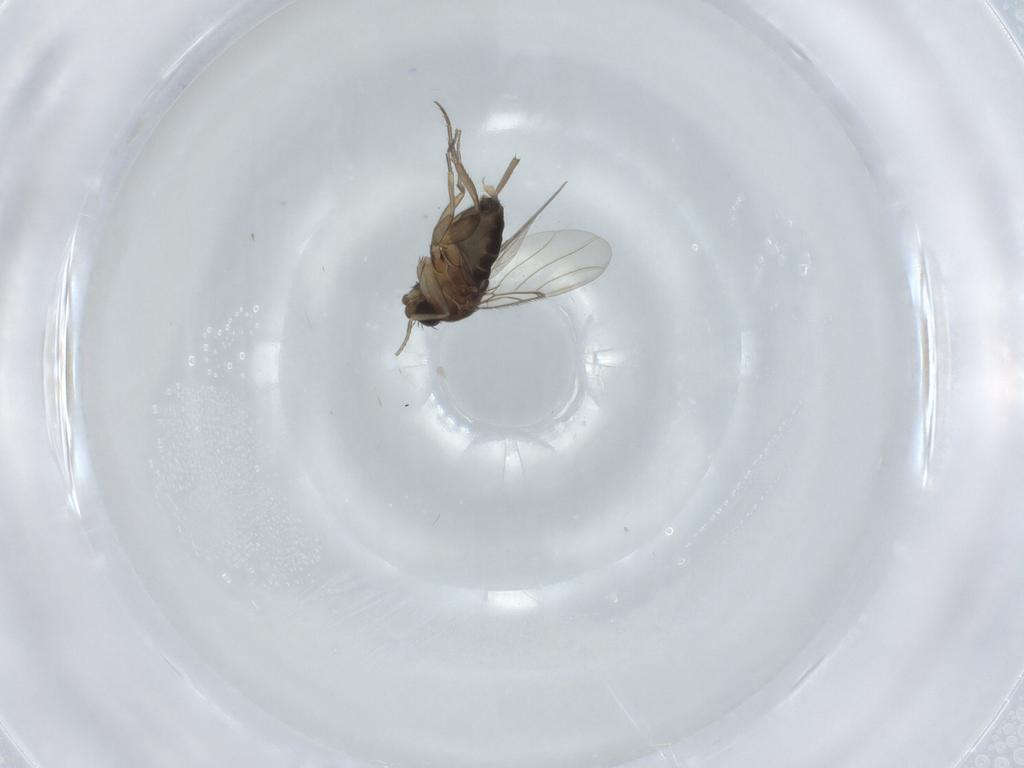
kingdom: Animalia
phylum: Arthropoda
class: Insecta
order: Diptera
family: Phoridae
